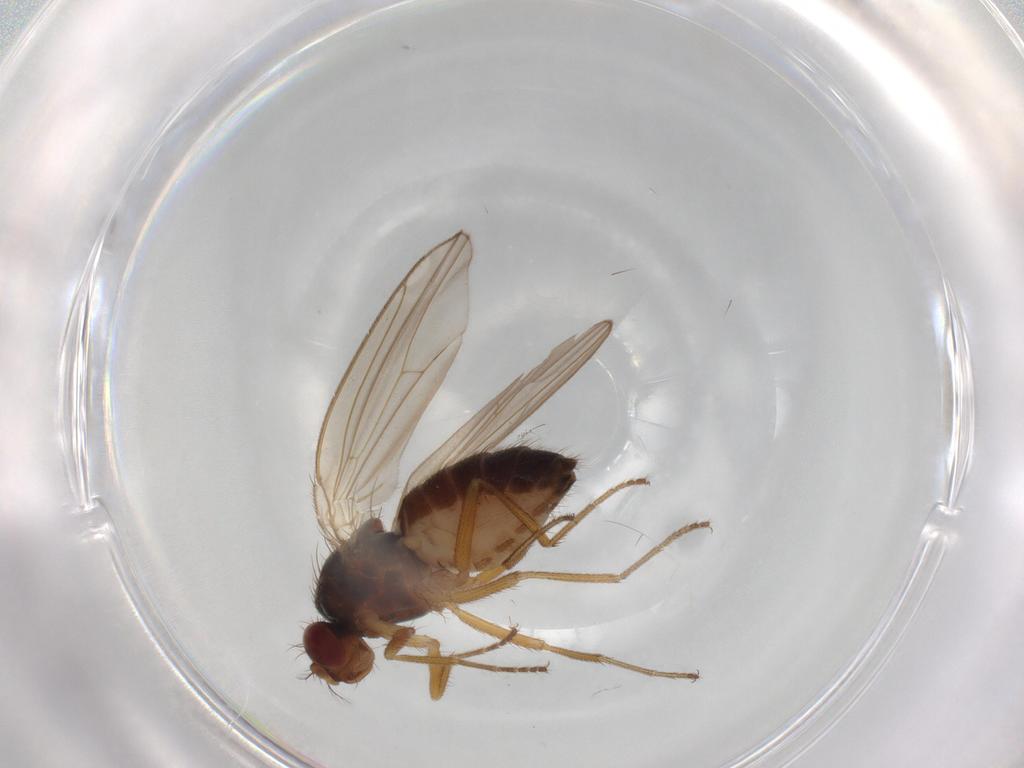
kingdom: Animalia
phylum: Arthropoda
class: Insecta
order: Diptera
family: Drosophilidae
